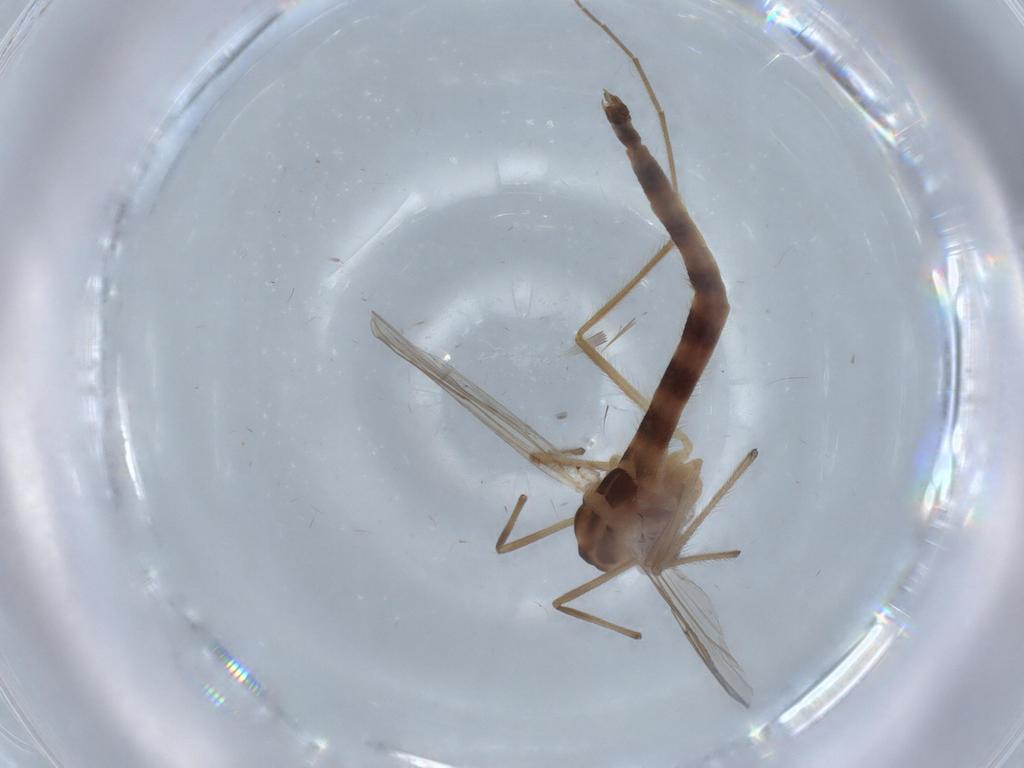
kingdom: Animalia
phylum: Arthropoda
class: Insecta
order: Diptera
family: Chironomidae
